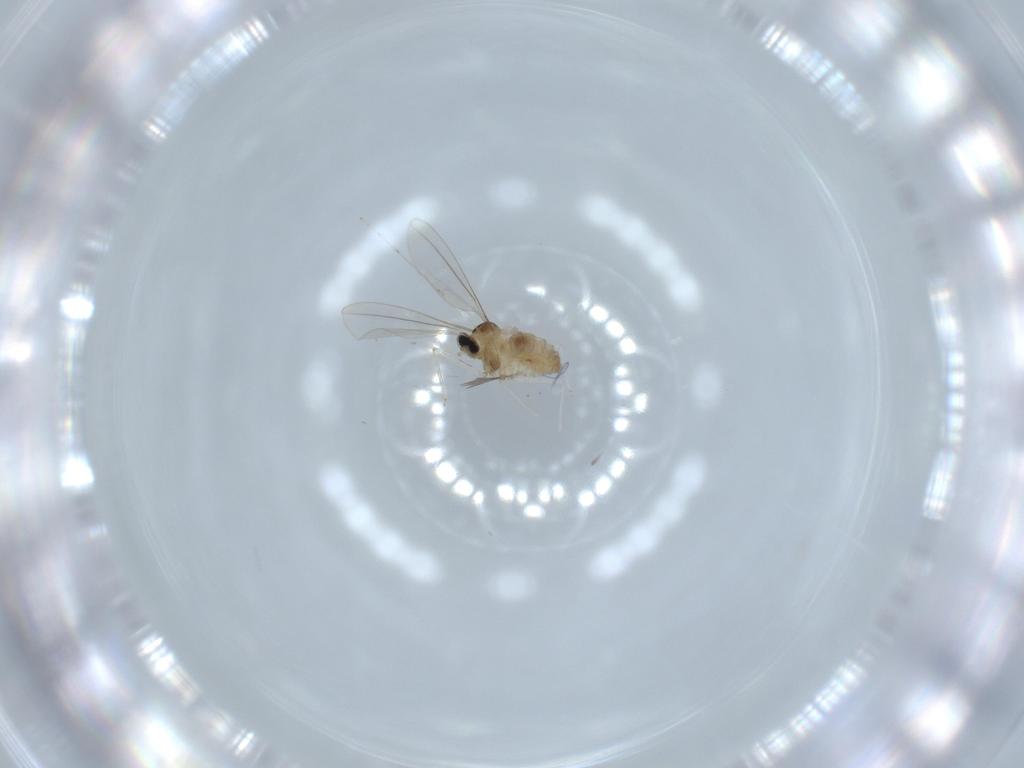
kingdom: Animalia
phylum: Arthropoda
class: Insecta
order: Diptera
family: Cecidomyiidae
